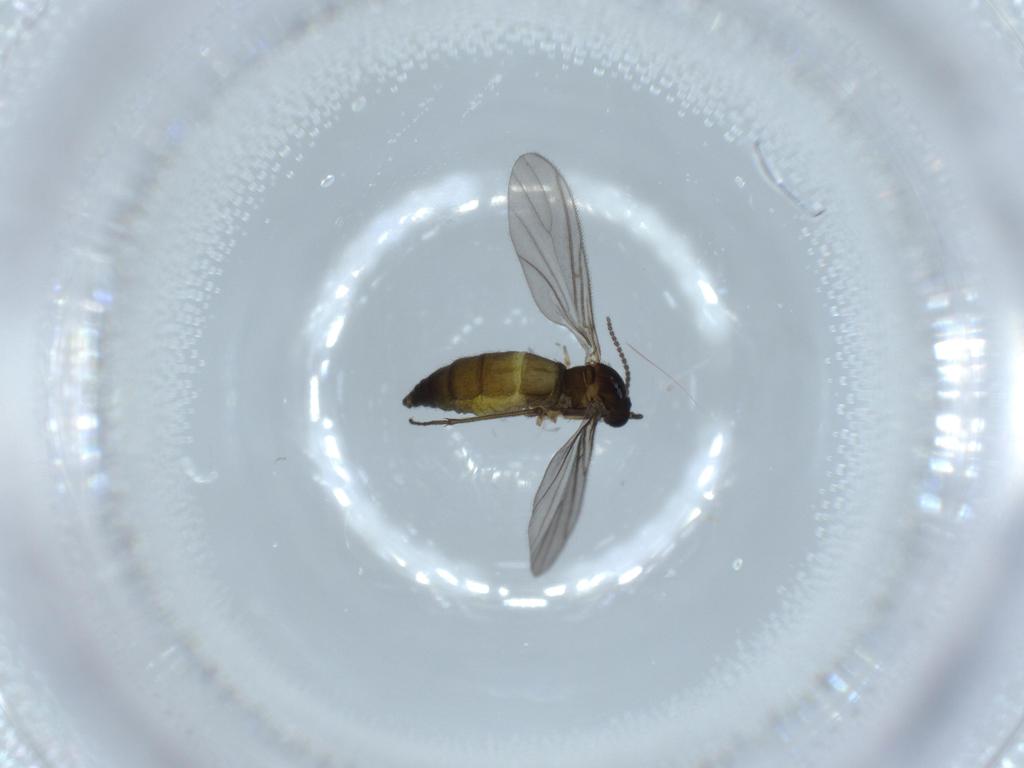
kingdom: Animalia
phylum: Arthropoda
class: Insecta
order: Diptera
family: Sciaridae
